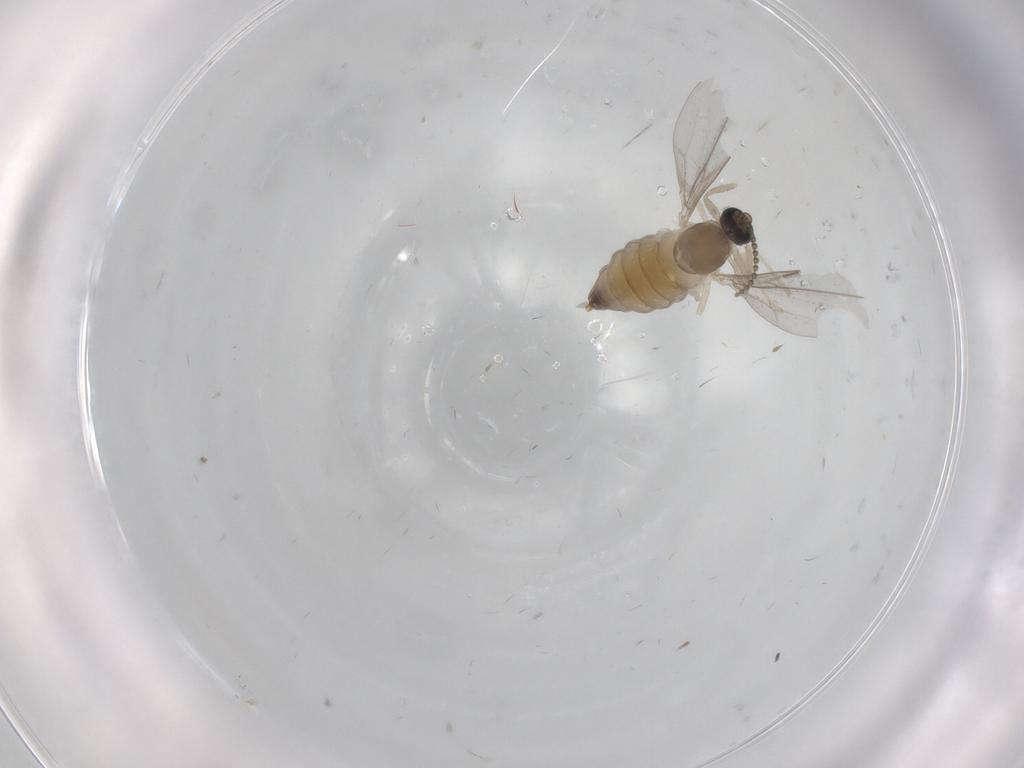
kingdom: Animalia
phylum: Arthropoda
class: Insecta
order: Diptera
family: Cecidomyiidae
